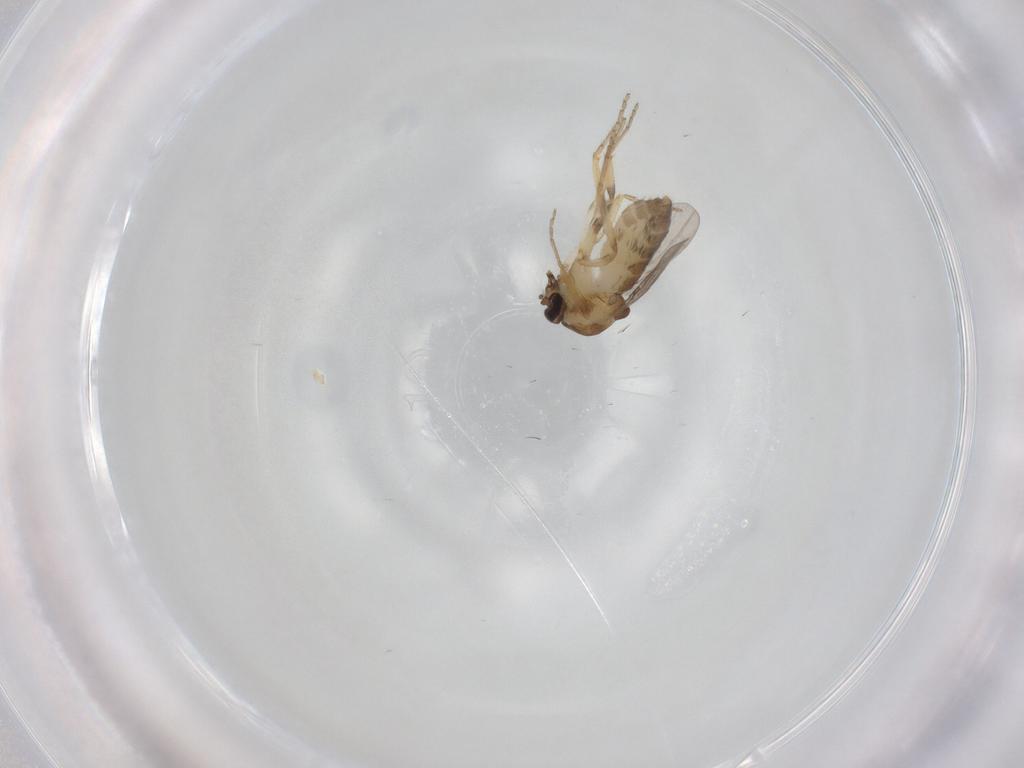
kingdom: Animalia
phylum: Arthropoda
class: Insecta
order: Diptera
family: Ceratopogonidae
